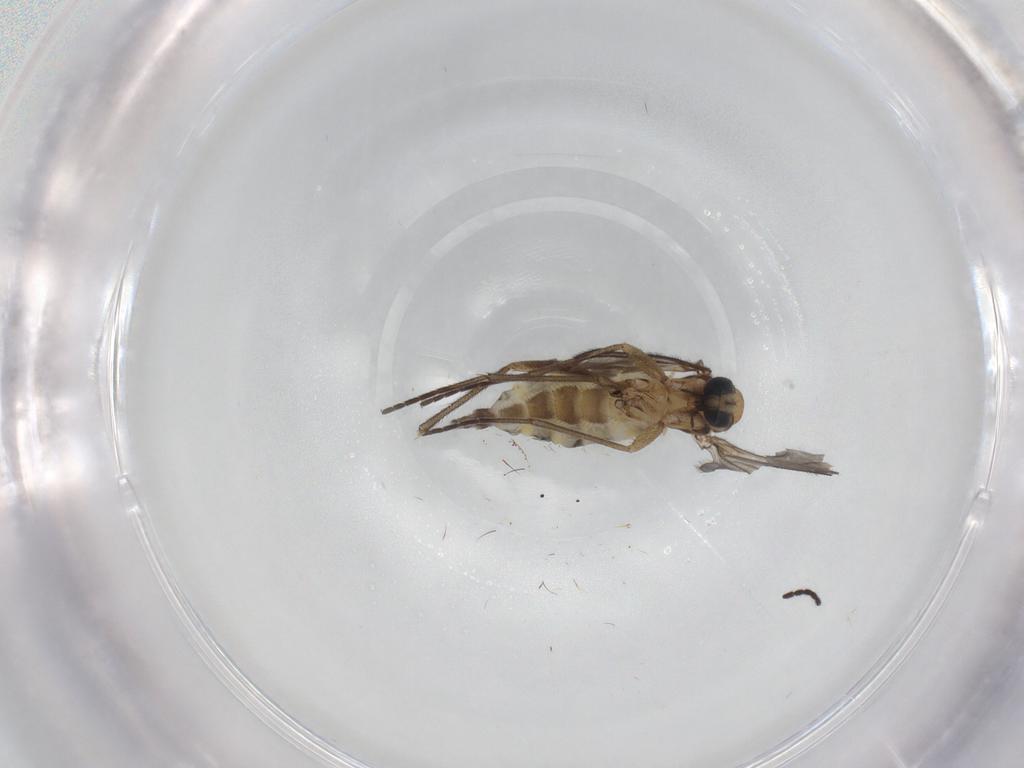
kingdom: Animalia
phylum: Arthropoda
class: Insecta
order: Diptera
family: Sciaridae
